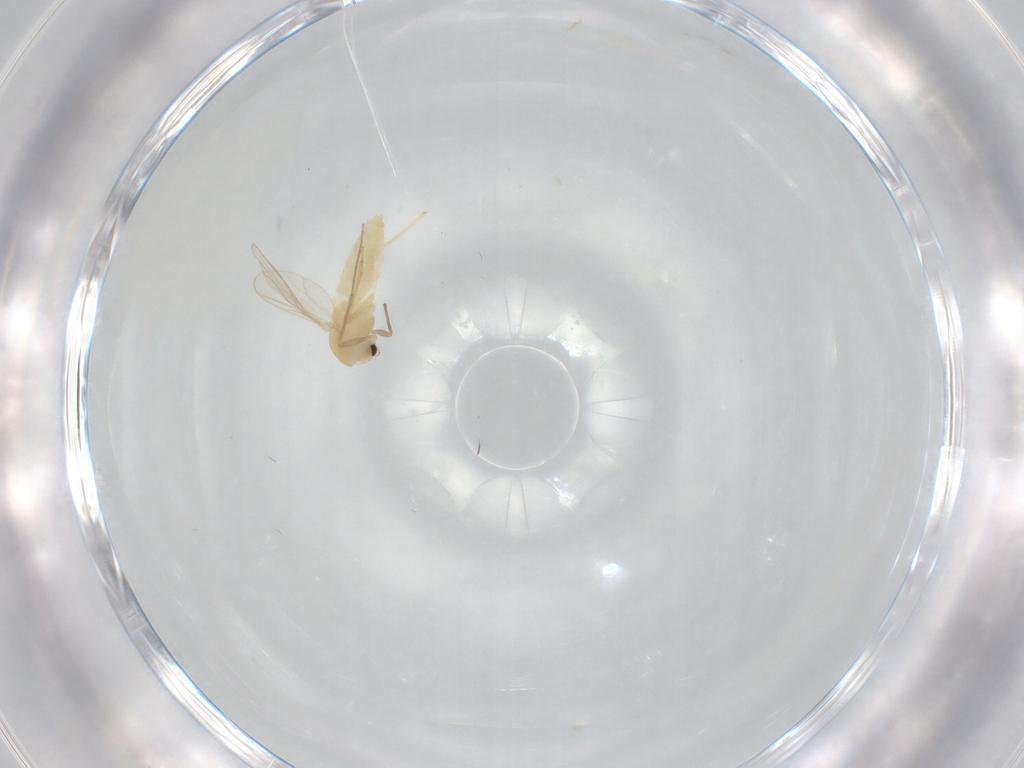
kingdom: Animalia
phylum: Arthropoda
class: Insecta
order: Diptera
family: Chironomidae
